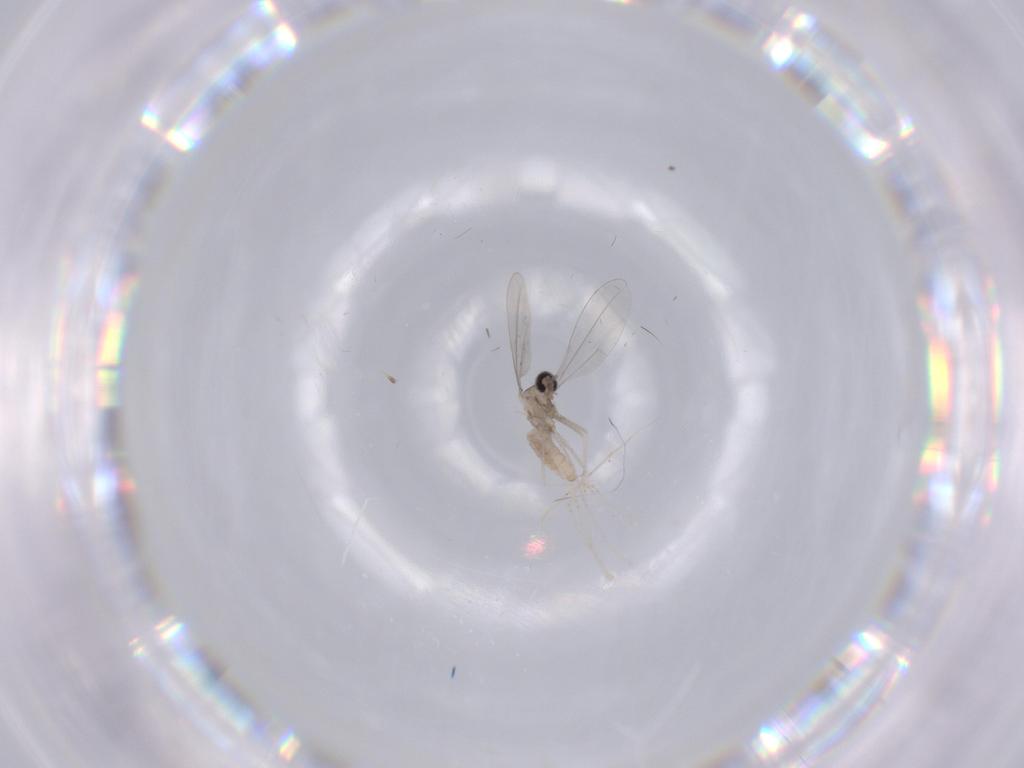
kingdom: Animalia
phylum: Arthropoda
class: Insecta
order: Diptera
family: Cecidomyiidae
